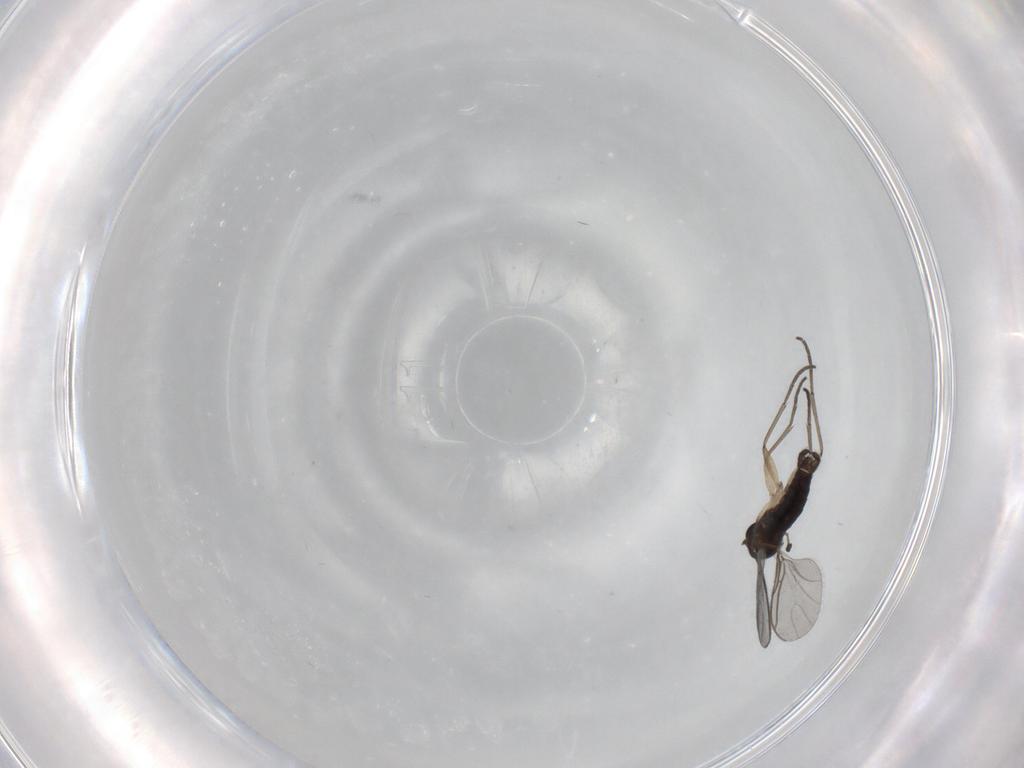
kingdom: Animalia
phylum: Arthropoda
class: Insecta
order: Diptera
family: Sciaridae
